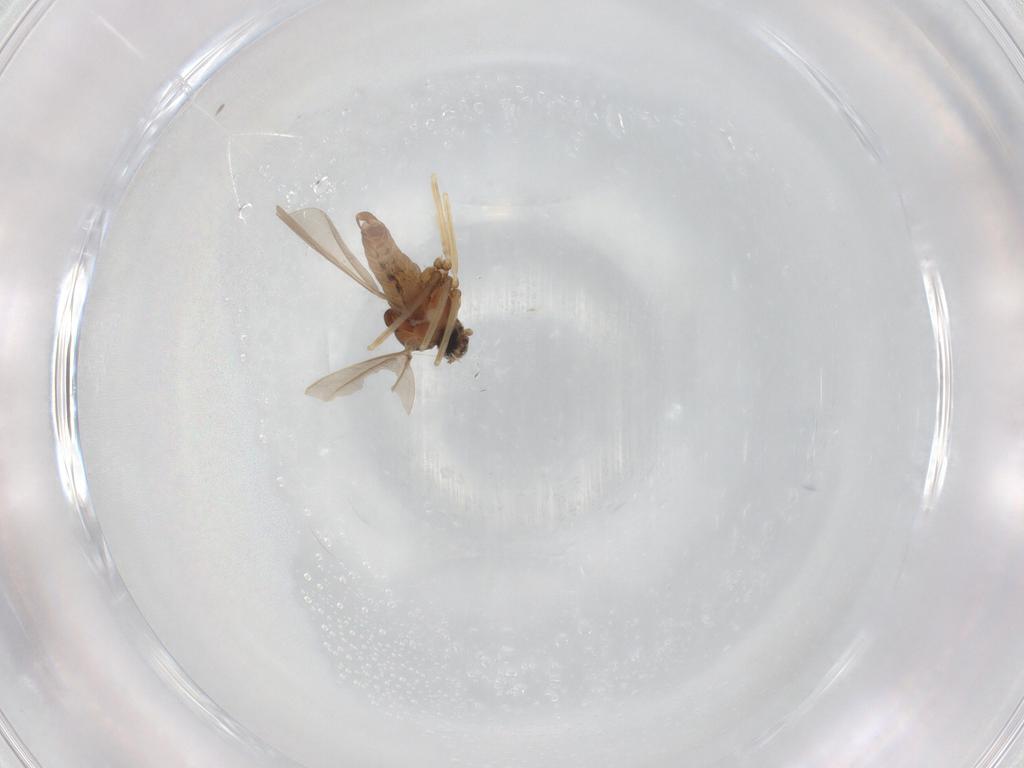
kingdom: Animalia
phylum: Arthropoda
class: Insecta
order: Diptera
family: Cecidomyiidae
